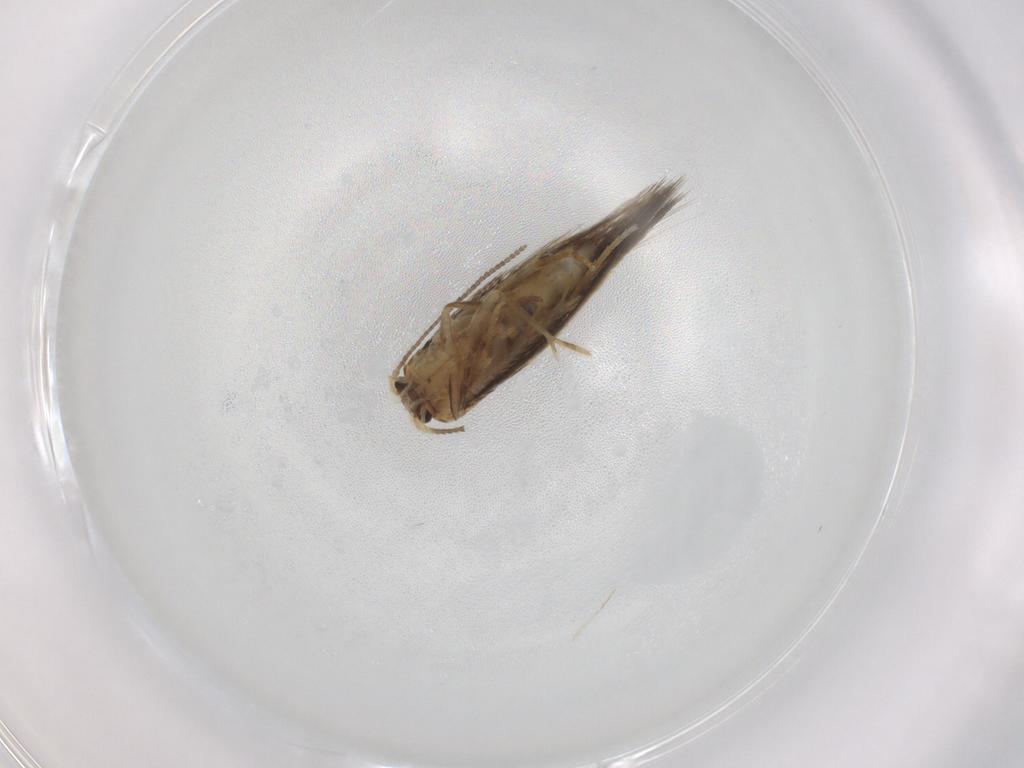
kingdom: Animalia
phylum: Arthropoda
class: Insecta
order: Lepidoptera
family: Nepticulidae
